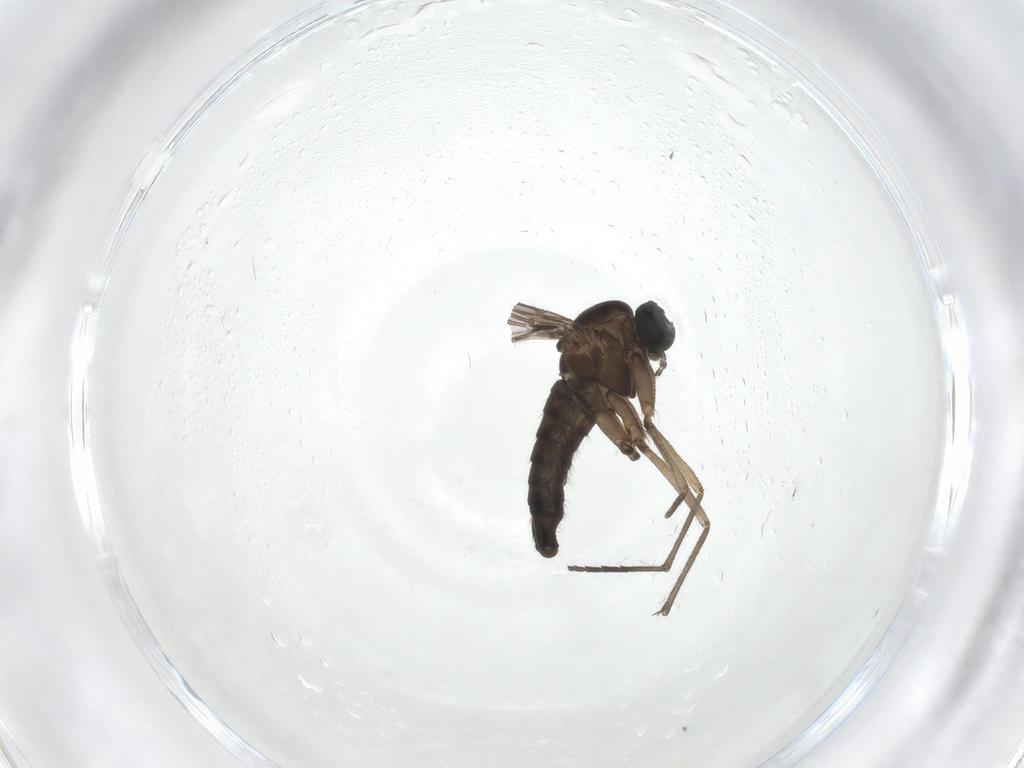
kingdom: Animalia
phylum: Arthropoda
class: Insecta
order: Diptera
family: Sciaridae
